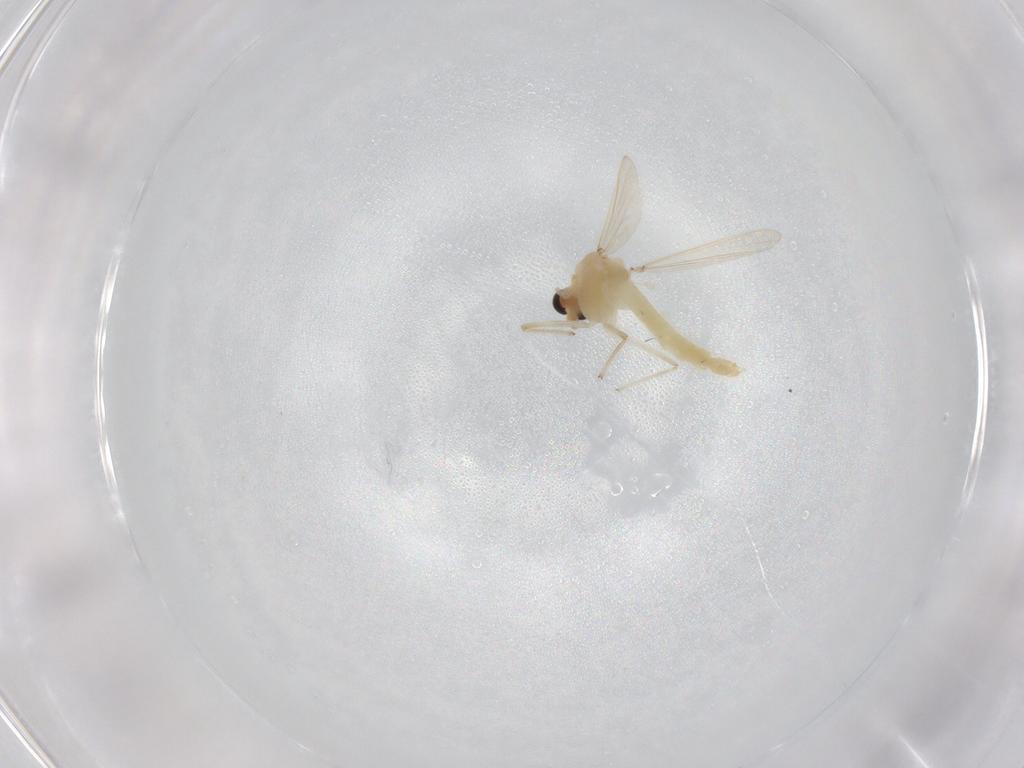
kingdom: Animalia
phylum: Arthropoda
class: Insecta
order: Diptera
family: Chironomidae
